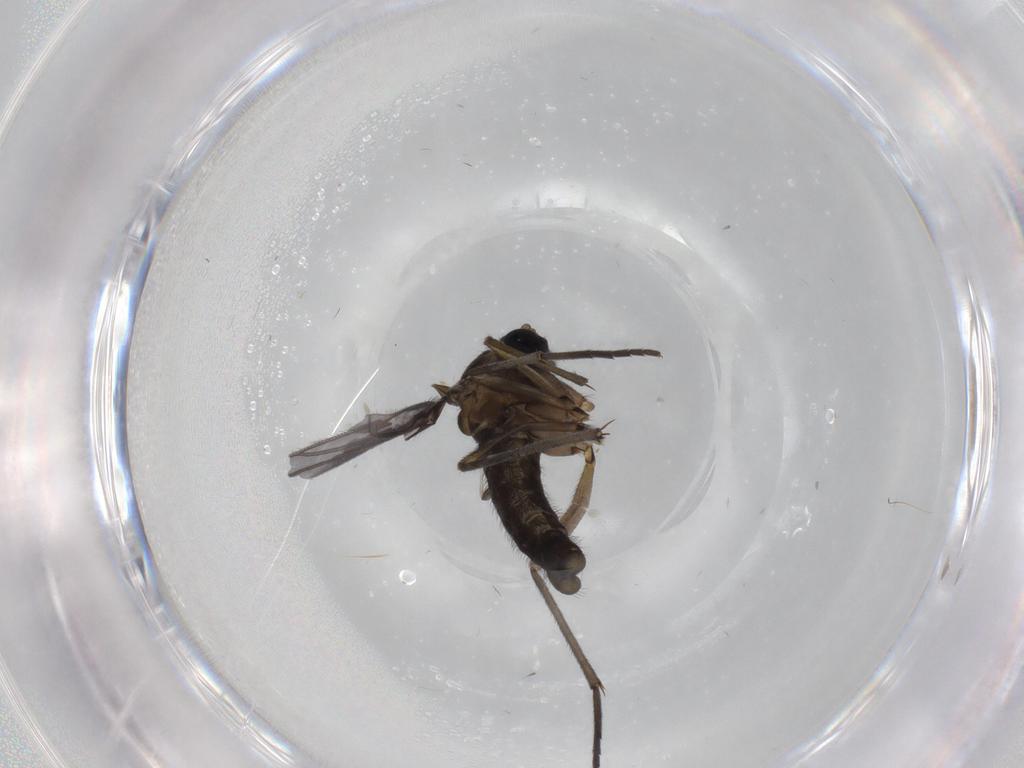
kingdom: Animalia
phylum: Arthropoda
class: Insecta
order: Diptera
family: Sciaridae
